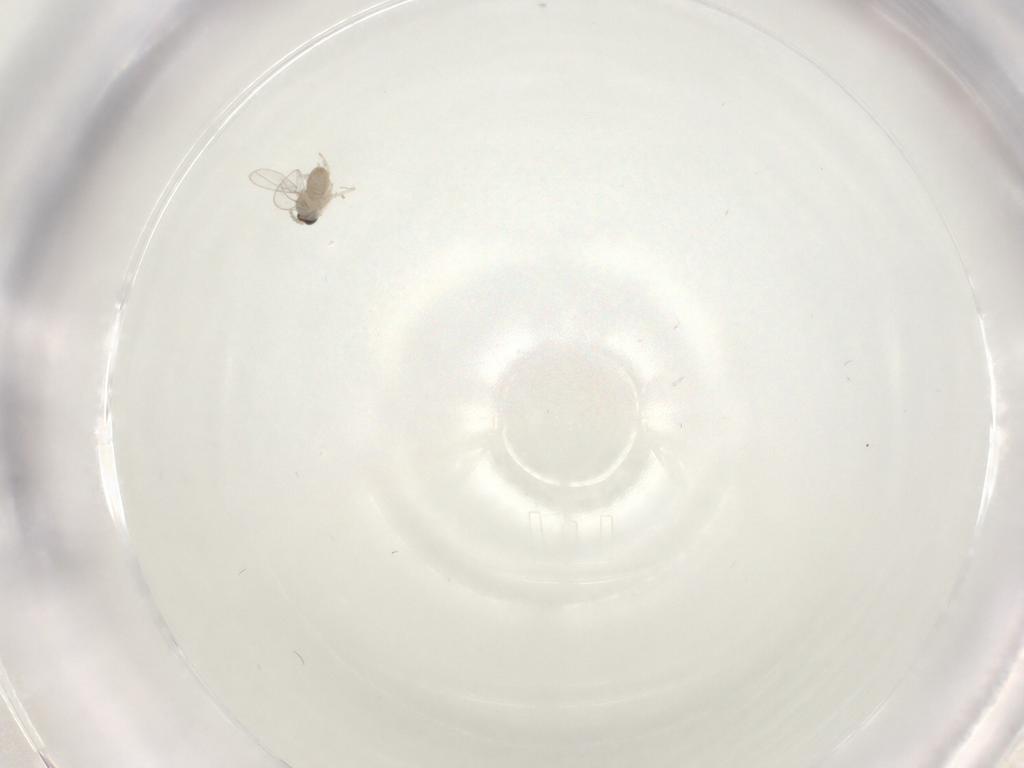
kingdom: Animalia
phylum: Arthropoda
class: Insecta
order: Diptera
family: Cecidomyiidae
